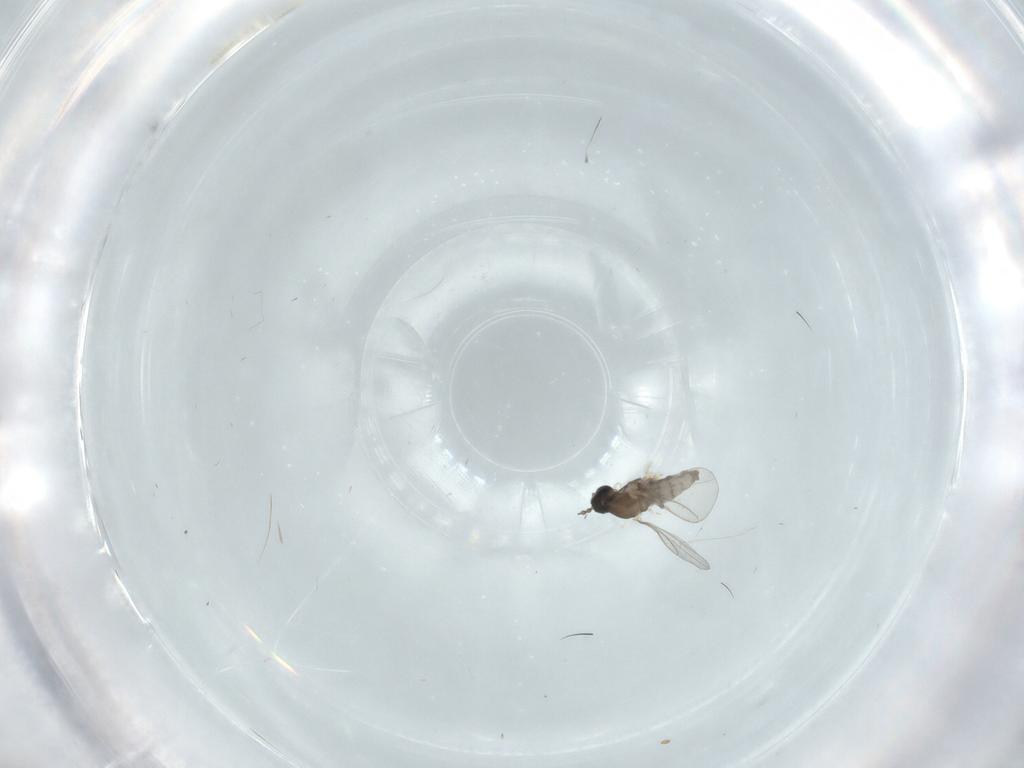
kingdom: Animalia
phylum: Arthropoda
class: Insecta
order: Diptera
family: Cecidomyiidae
